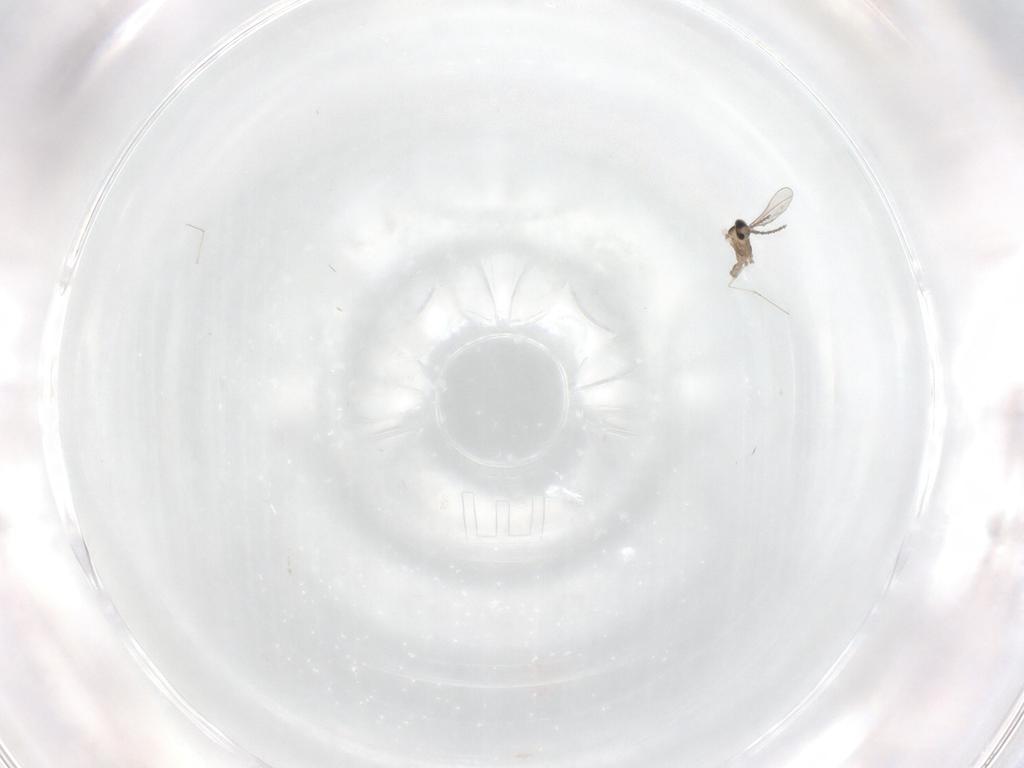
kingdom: Animalia
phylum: Arthropoda
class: Insecta
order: Diptera
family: Cecidomyiidae
